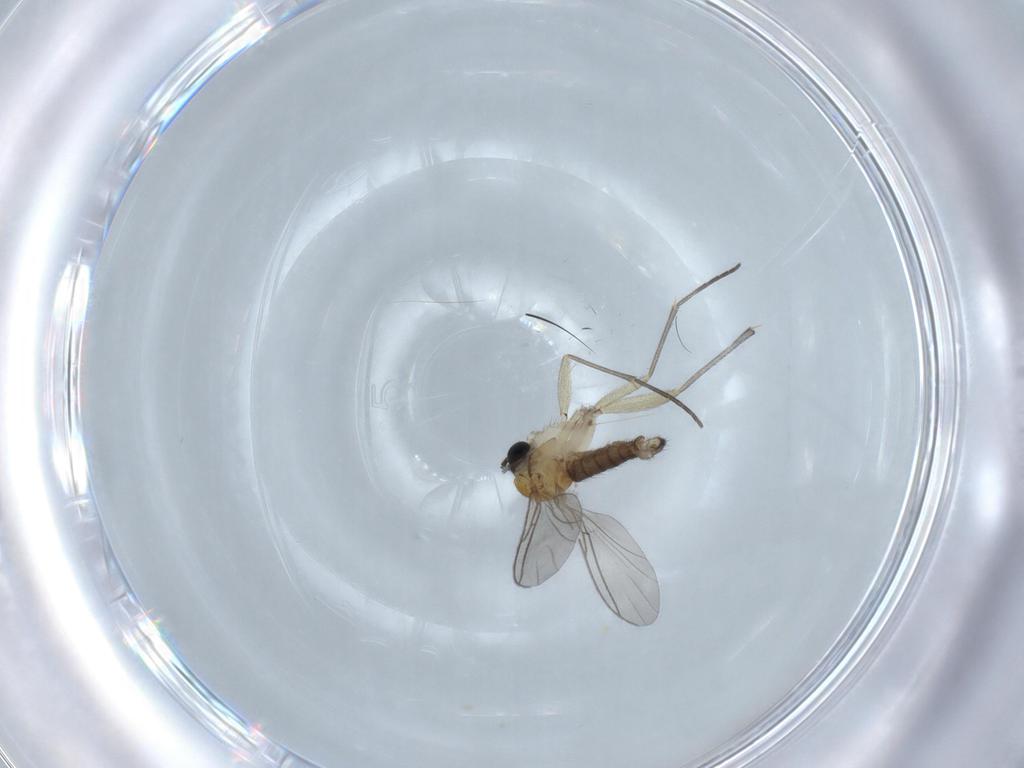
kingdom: Animalia
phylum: Arthropoda
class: Insecta
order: Diptera
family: Sciaridae
